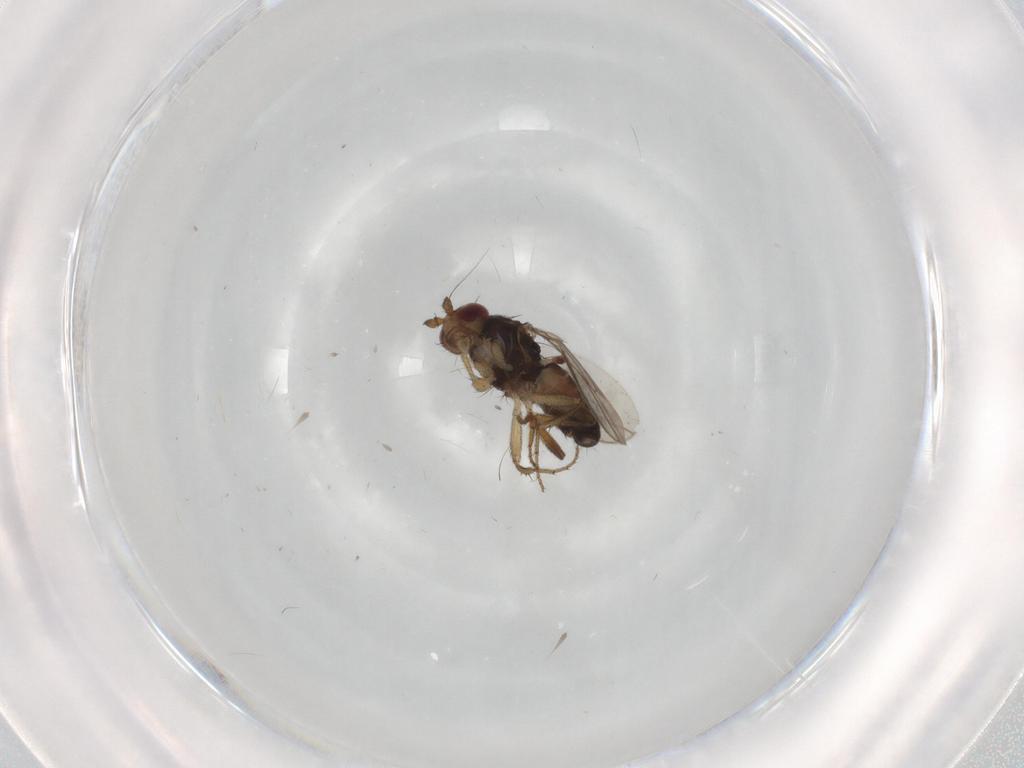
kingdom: Animalia
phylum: Arthropoda
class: Insecta
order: Diptera
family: Sphaeroceridae
